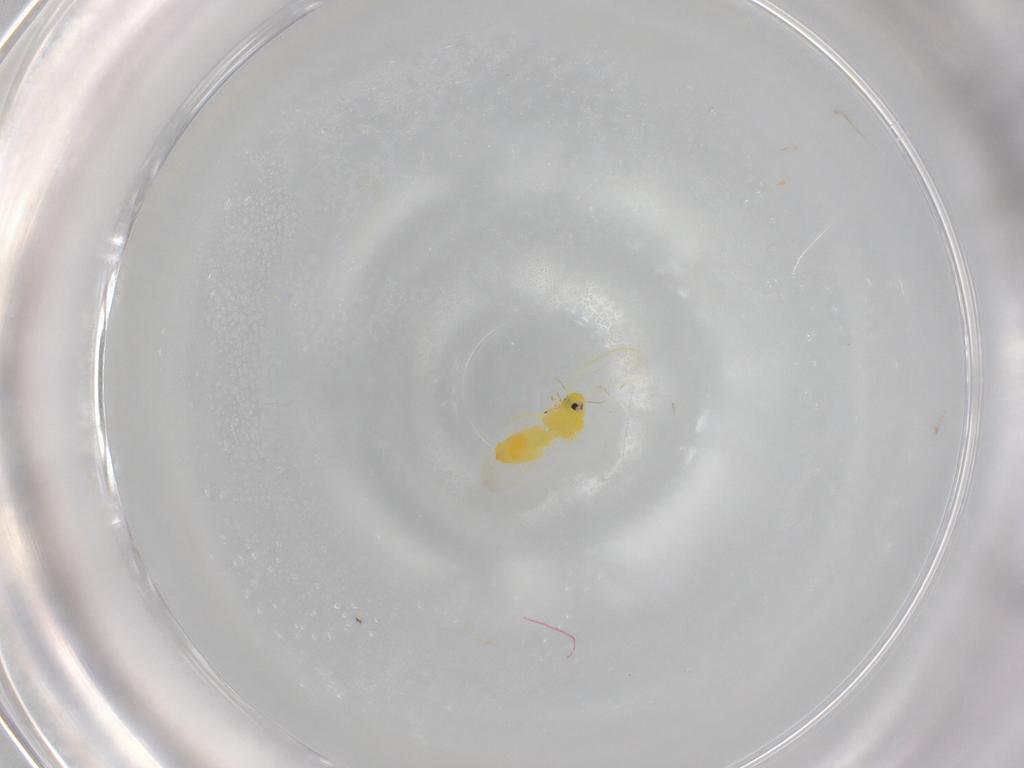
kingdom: Animalia
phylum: Arthropoda
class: Insecta
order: Hemiptera
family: Aleyrodidae
